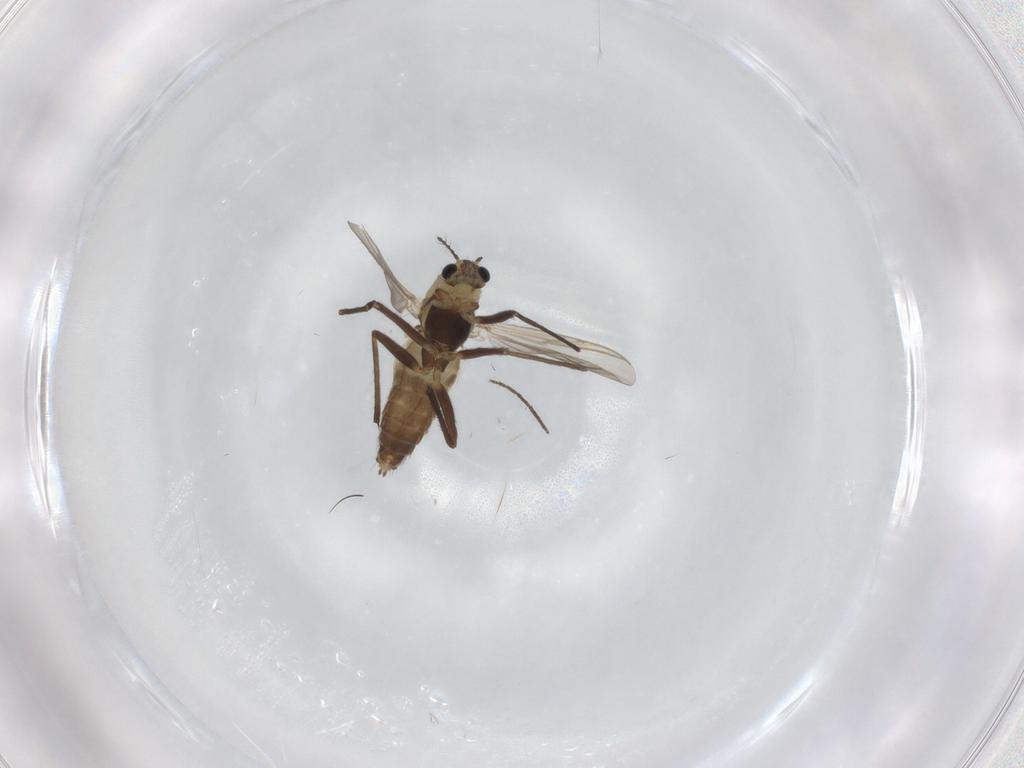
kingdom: Animalia
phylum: Arthropoda
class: Insecta
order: Diptera
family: Chironomidae
